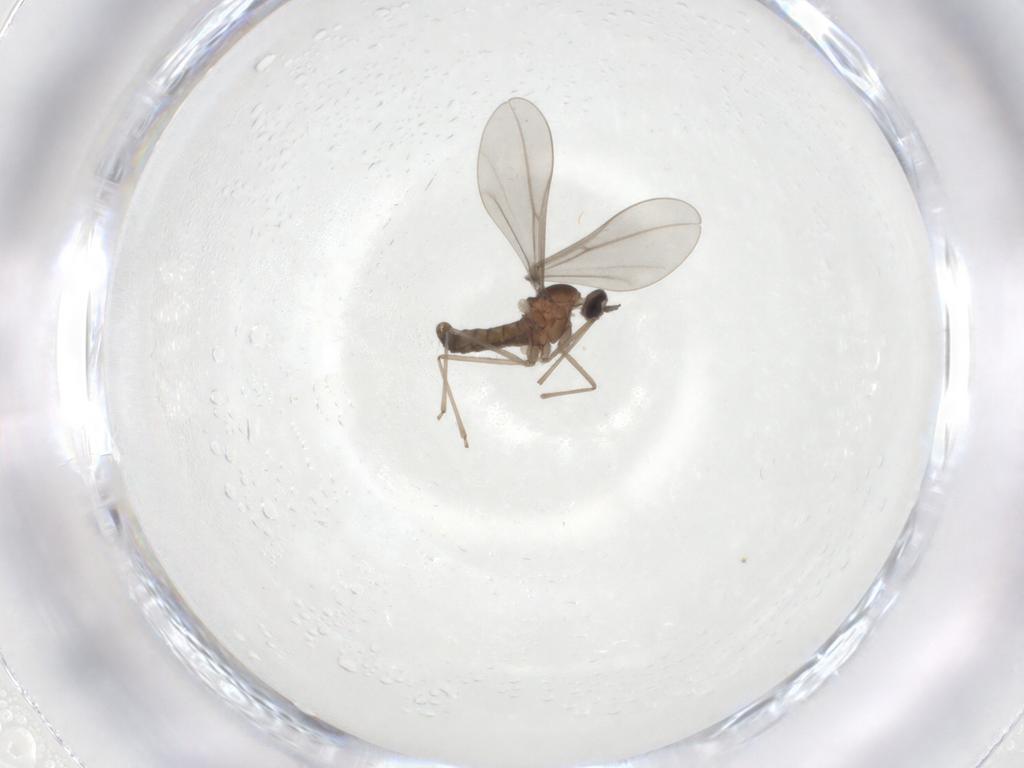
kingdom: Animalia
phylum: Arthropoda
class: Insecta
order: Diptera
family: Cecidomyiidae
